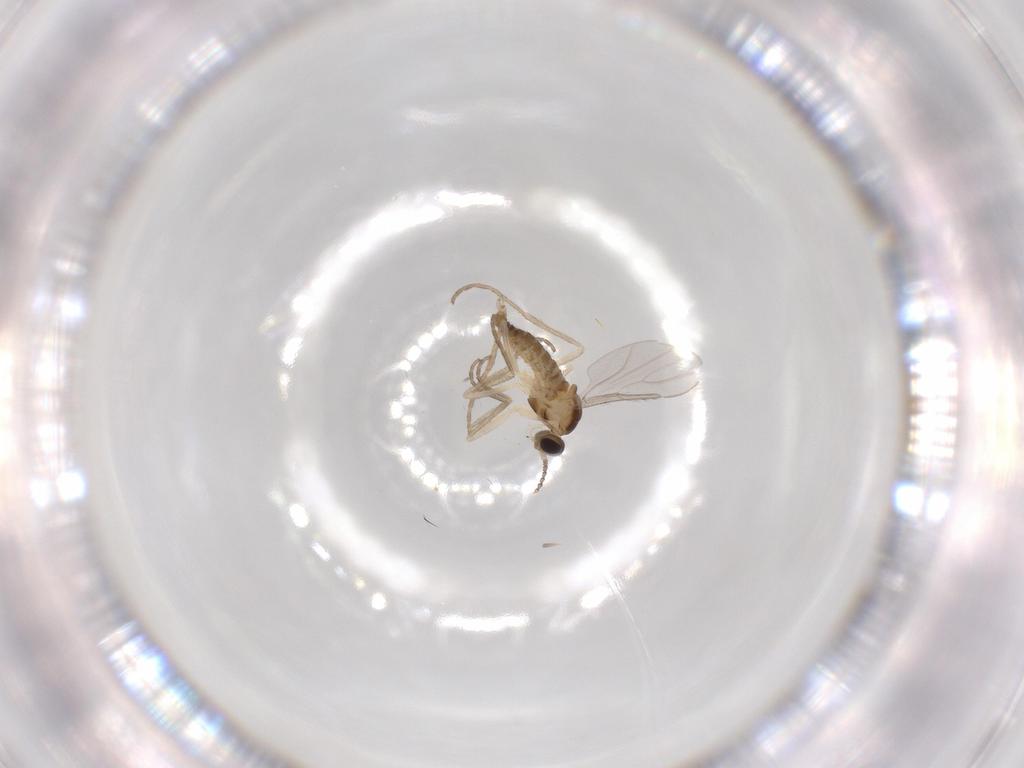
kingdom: Animalia
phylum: Arthropoda
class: Insecta
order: Diptera
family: Cecidomyiidae
